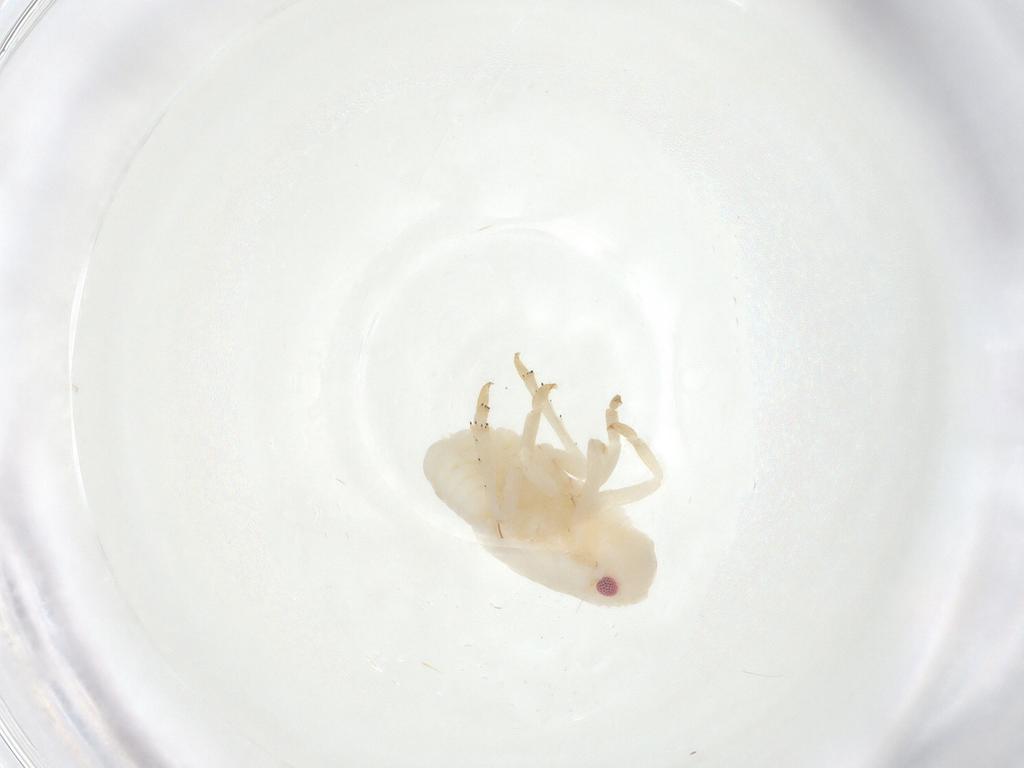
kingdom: Animalia
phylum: Arthropoda
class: Insecta
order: Hemiptera
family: Flatidae
